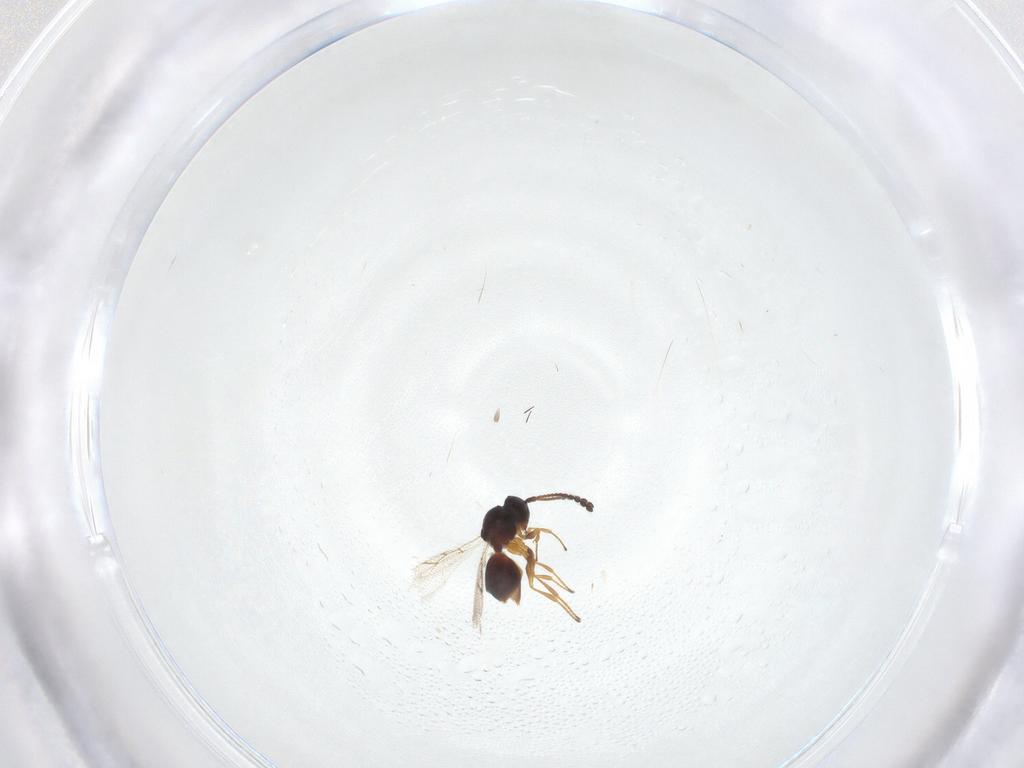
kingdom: Animalia
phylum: Arthropoda
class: Insecta
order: Hymenoptera
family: Figitidae
